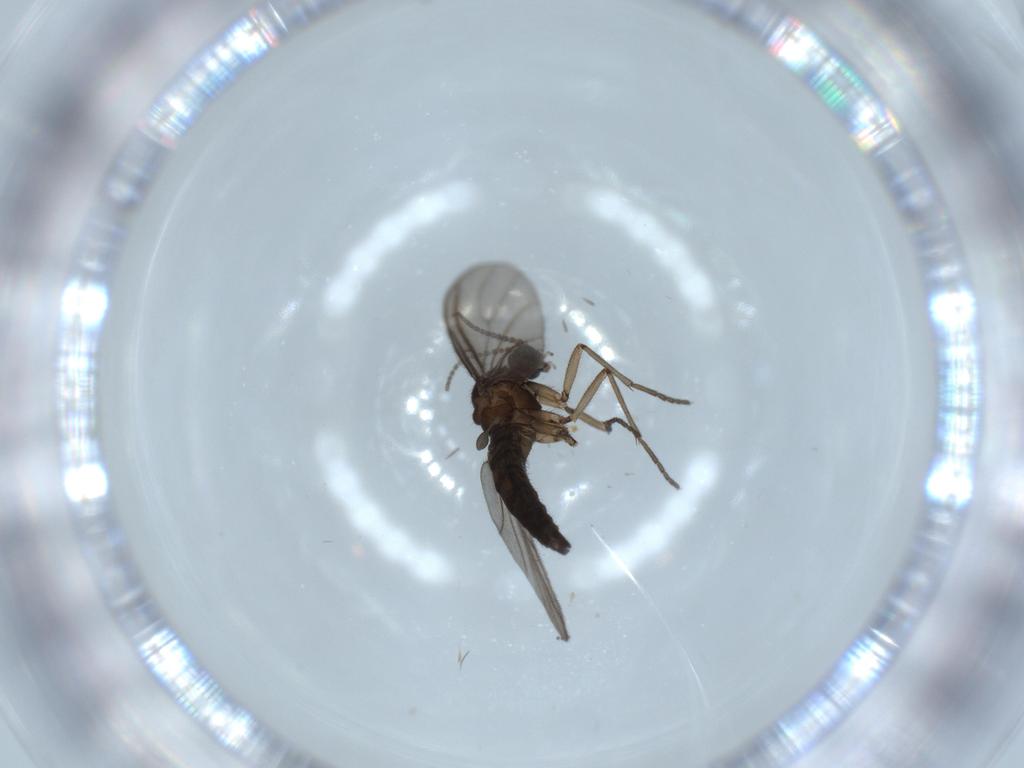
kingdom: Animalia
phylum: Arthropoda
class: Insecta
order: Diptera
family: Sciaridae
